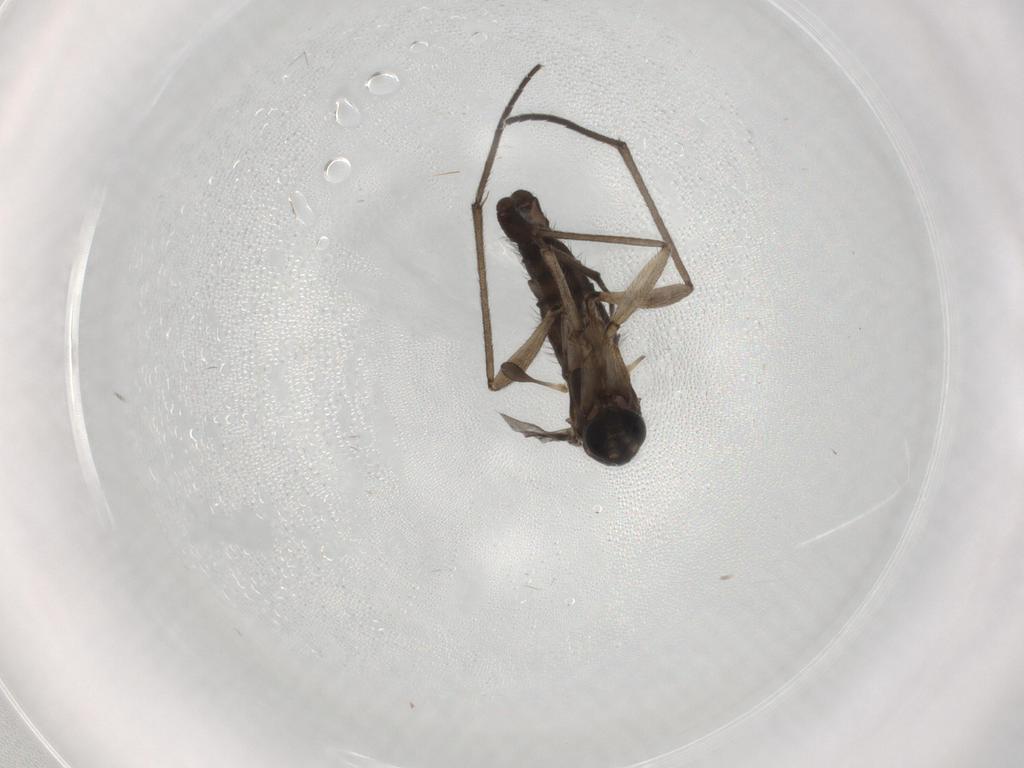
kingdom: Animalia
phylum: Arthropoda
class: Insecta
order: Diptera
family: Sciaridae
